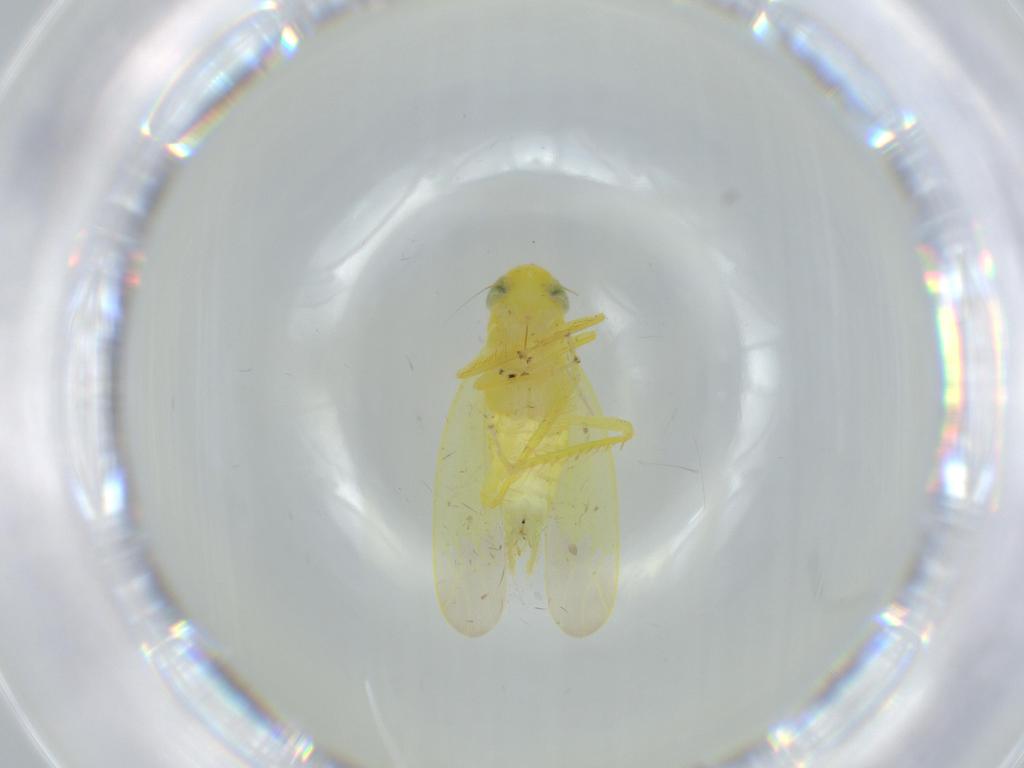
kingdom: Animalia
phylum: Arthropoda
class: Insecta
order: Hemiptera
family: Cicadellidae
